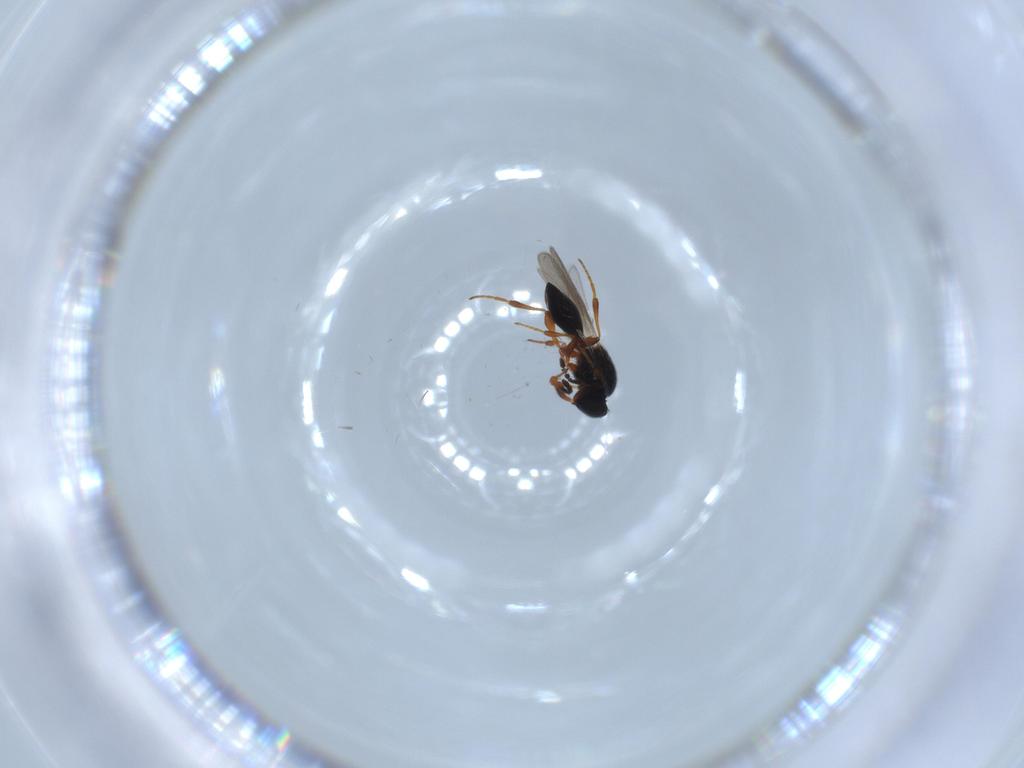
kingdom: Animalia
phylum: Arthropoda
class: Insecta
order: Hymenoptera
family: Platygastridae
